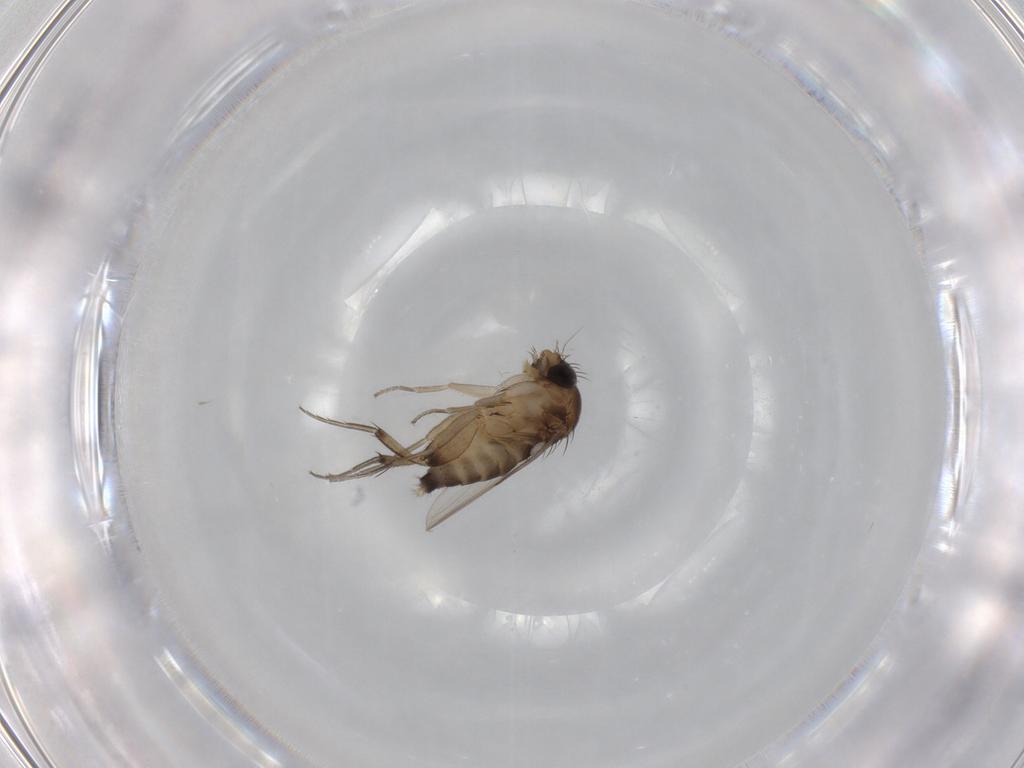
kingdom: Animalia
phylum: Arthropoda
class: Insecta
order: Diptera
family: Phoridae
